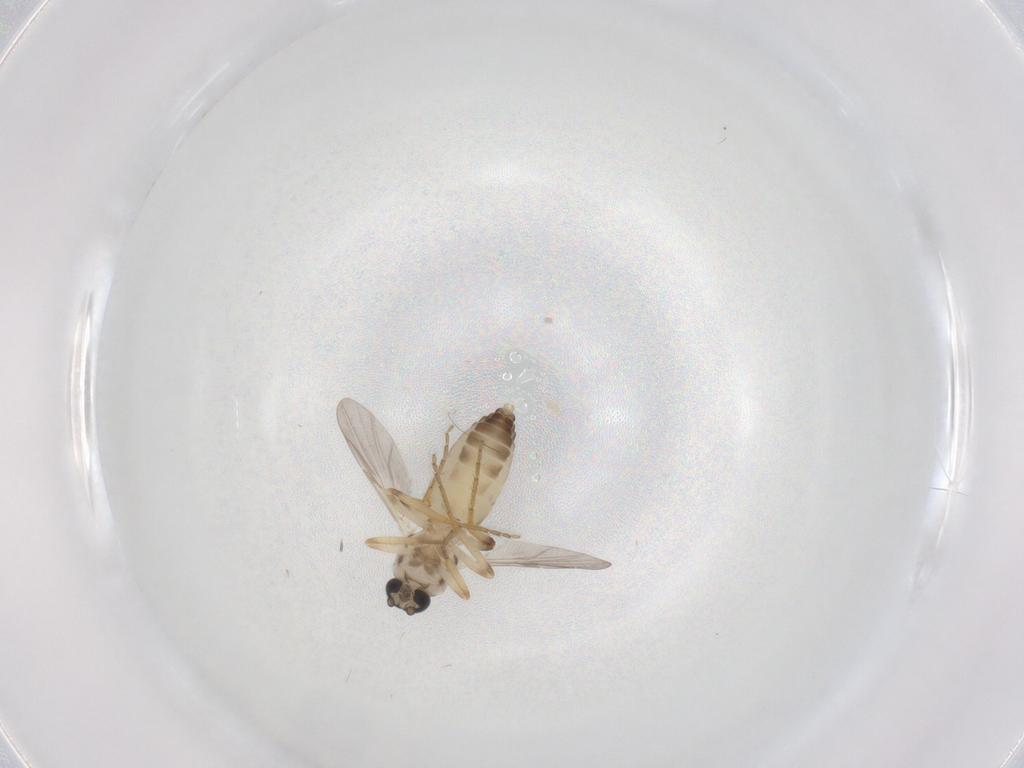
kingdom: Animalia
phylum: Arthropoda
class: Insecta
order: Diptera
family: Ceratopogonidae
